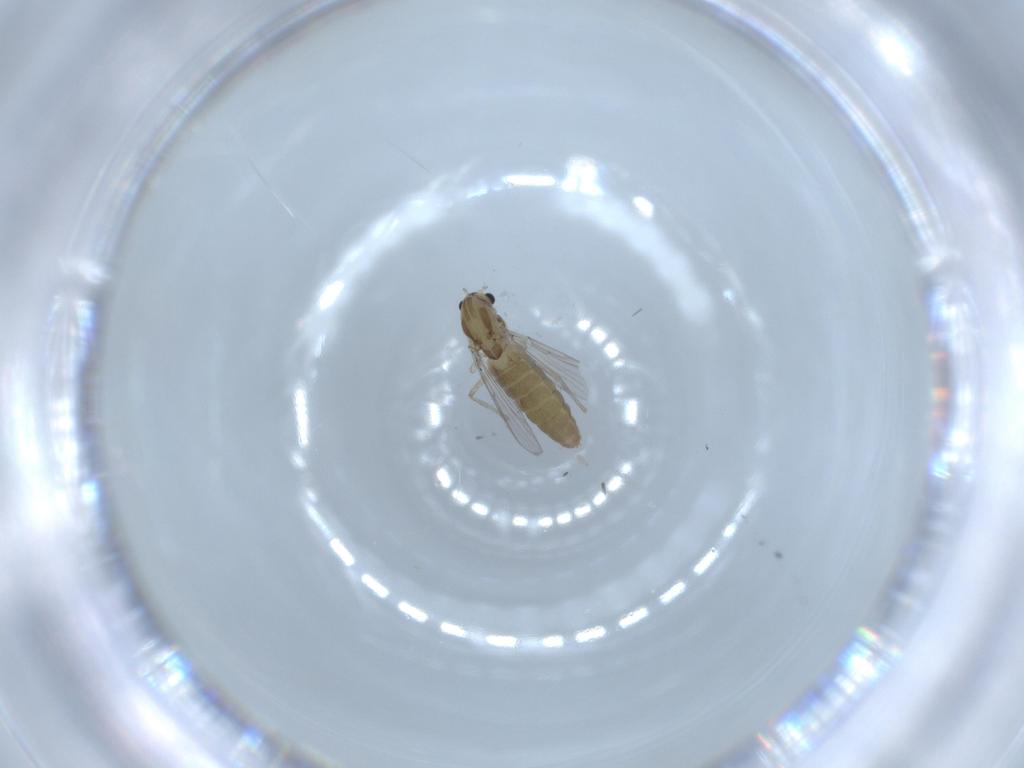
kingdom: Animalia
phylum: Arthropoda
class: Insecta
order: Diptera
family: Chironomidae
